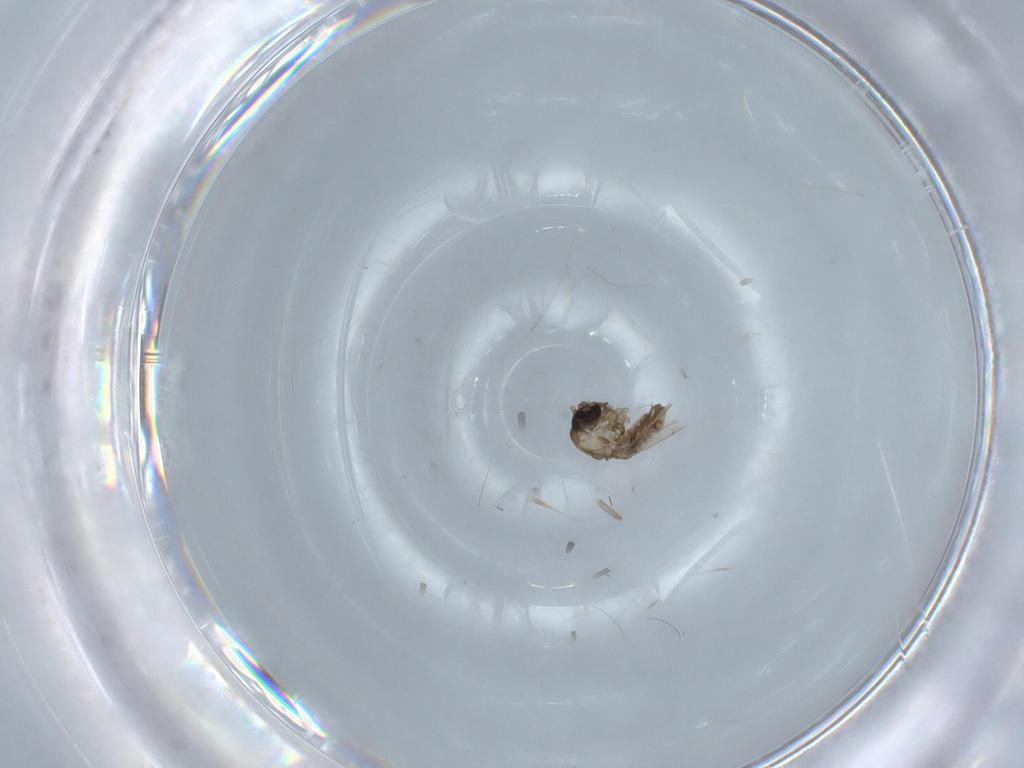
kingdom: Animalia
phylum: Arthropoda
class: Insecta
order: Diptera
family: Psychodidae
